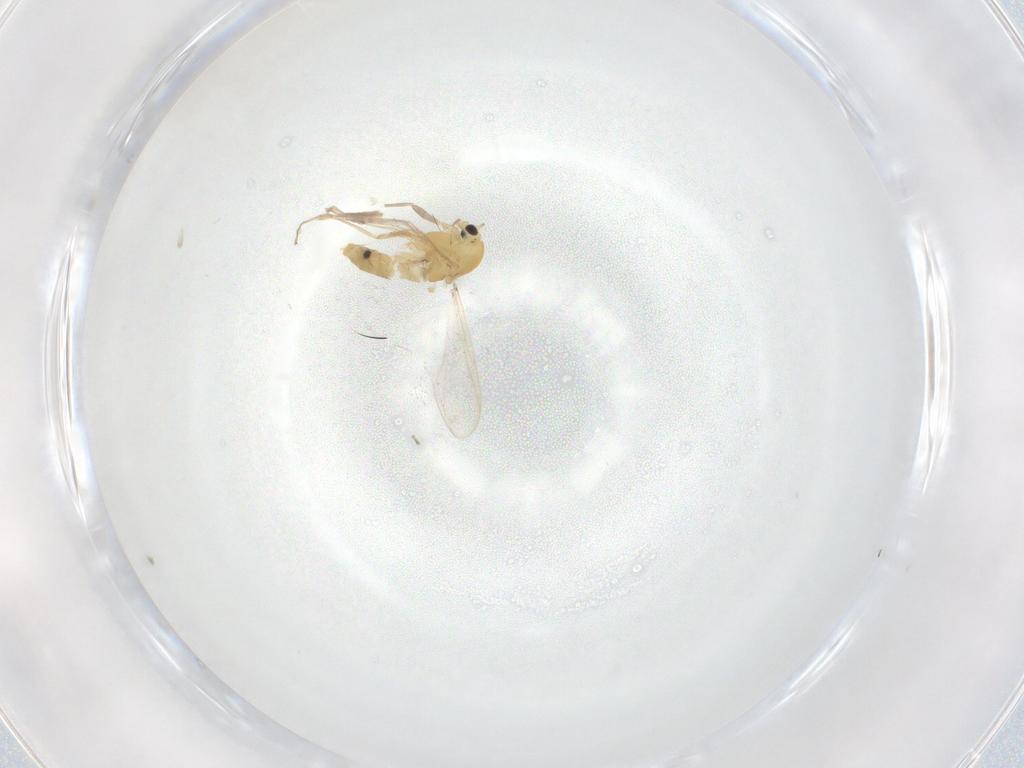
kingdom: Animalia
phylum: Arthropoda
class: Insecta
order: Diptera
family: Chironomidae
